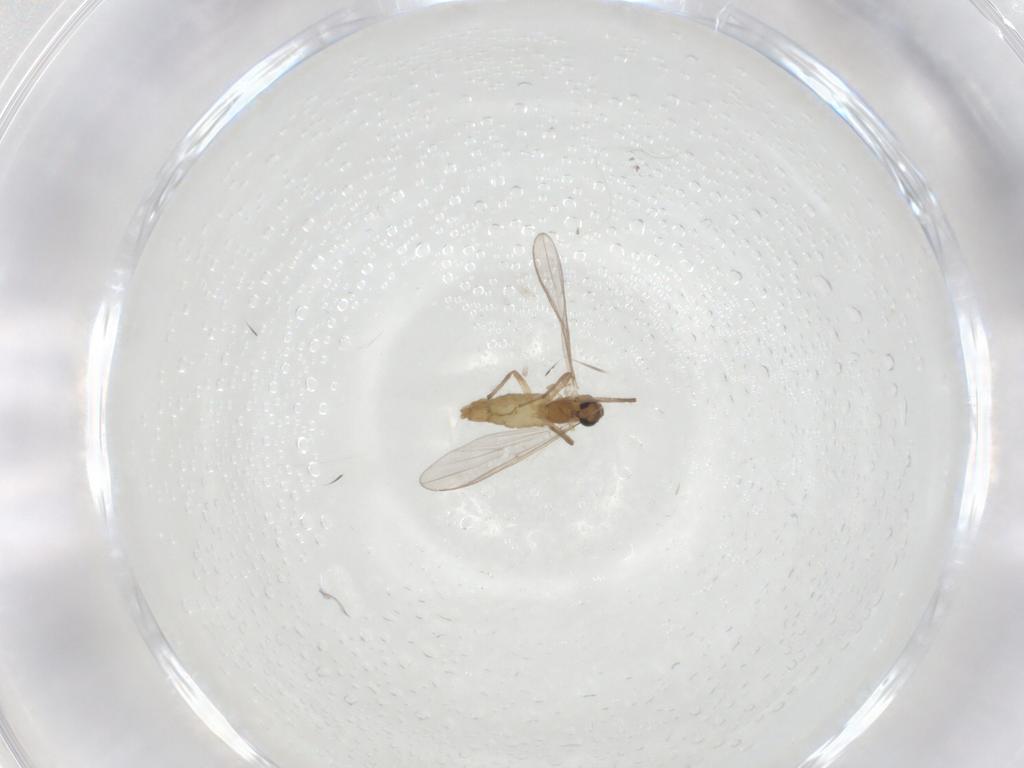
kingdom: Animalia
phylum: Arthropoda
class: Insecta
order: Diptera
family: Chironomidae
